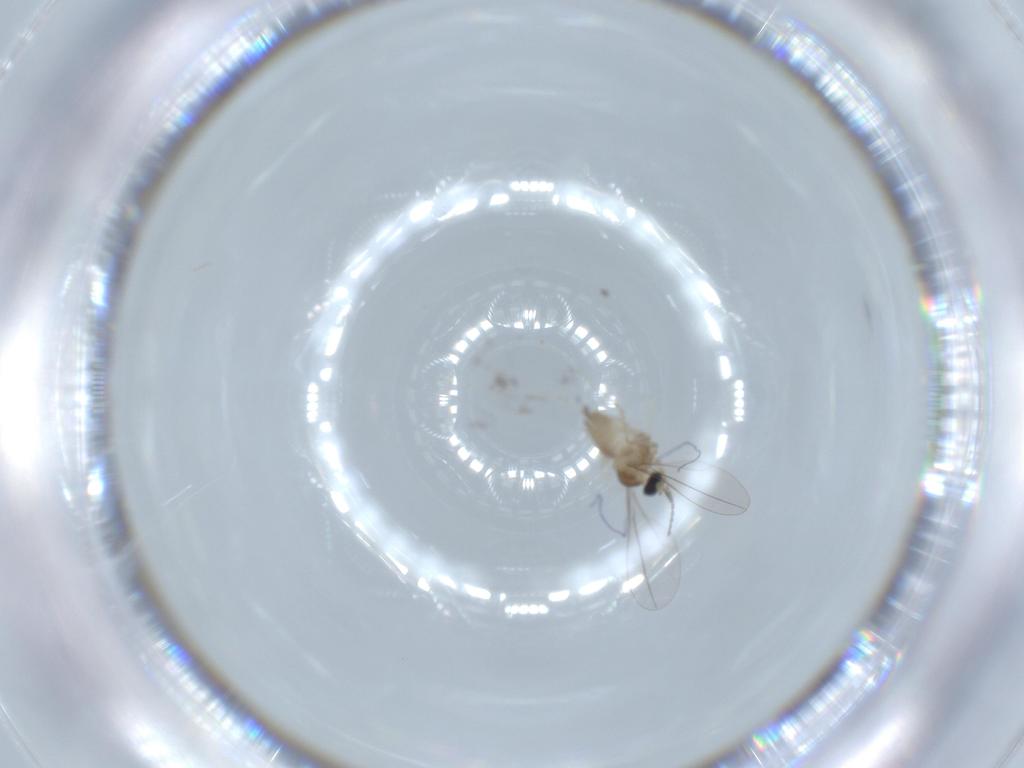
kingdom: Animalia
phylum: Arthropoda
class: Insecta
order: Diptera
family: Cecidomyiidae
